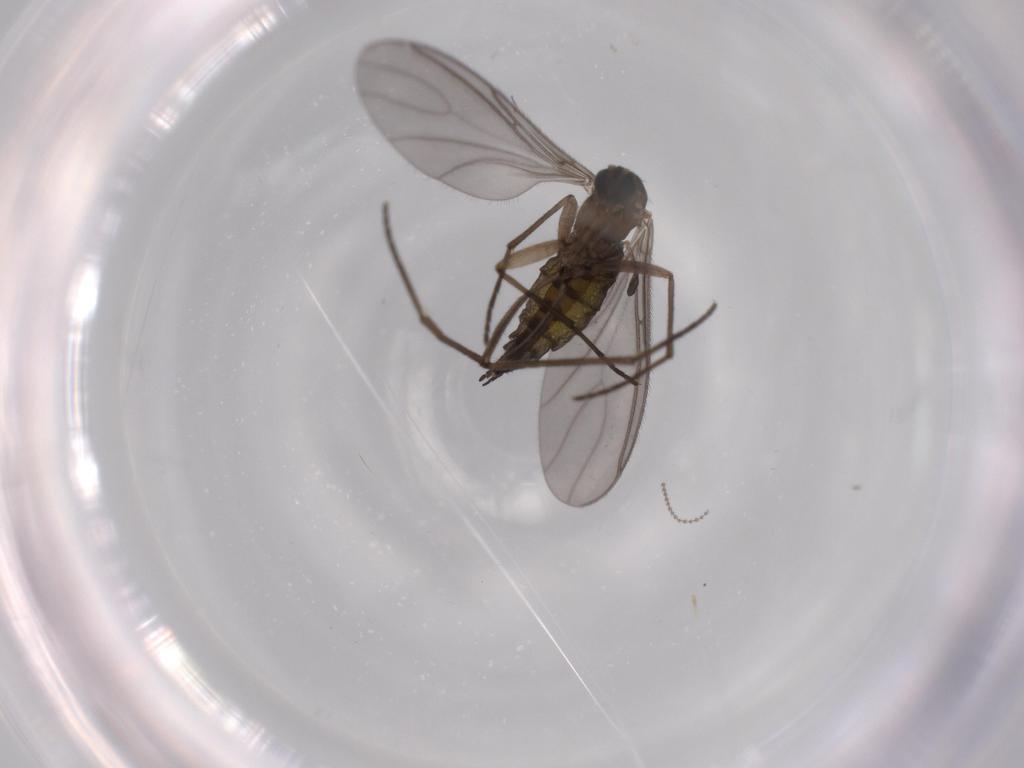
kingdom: Animalia
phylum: Arthropoda
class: Insecta
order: Diptera
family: Sciaridae
